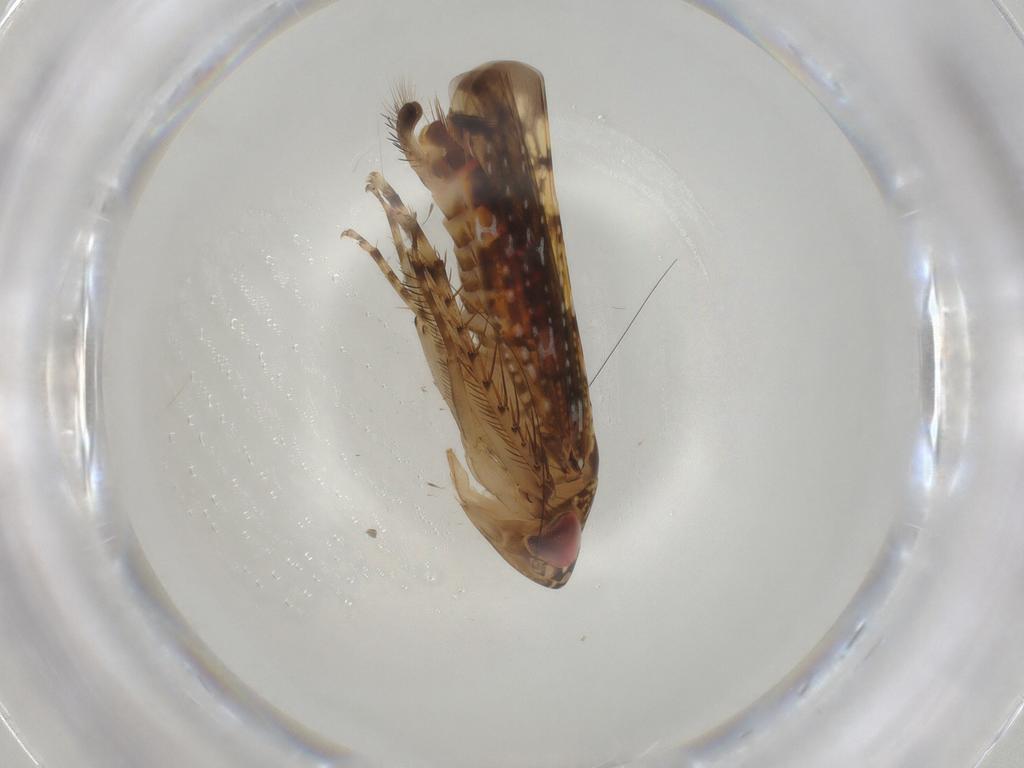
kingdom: Animalia
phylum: Arthropoda
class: Insecta
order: Hemiptera
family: Cicadellidae
